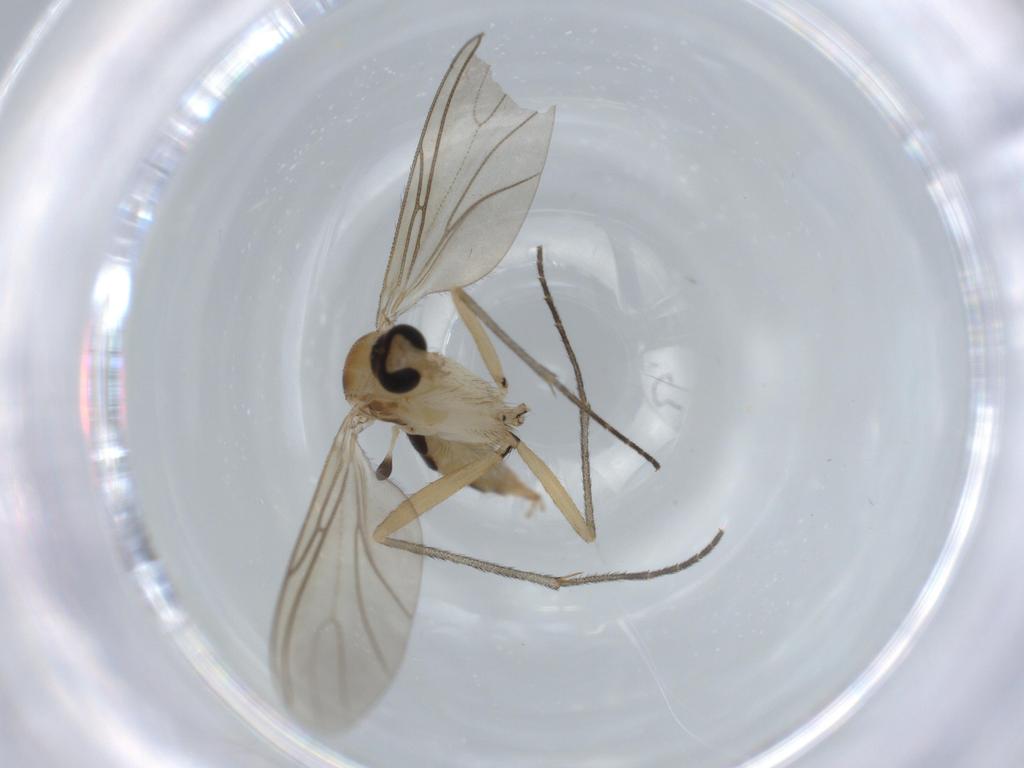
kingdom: Animalia
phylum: Arthropoda
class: Insecta
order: Diptera
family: Sciaridae
